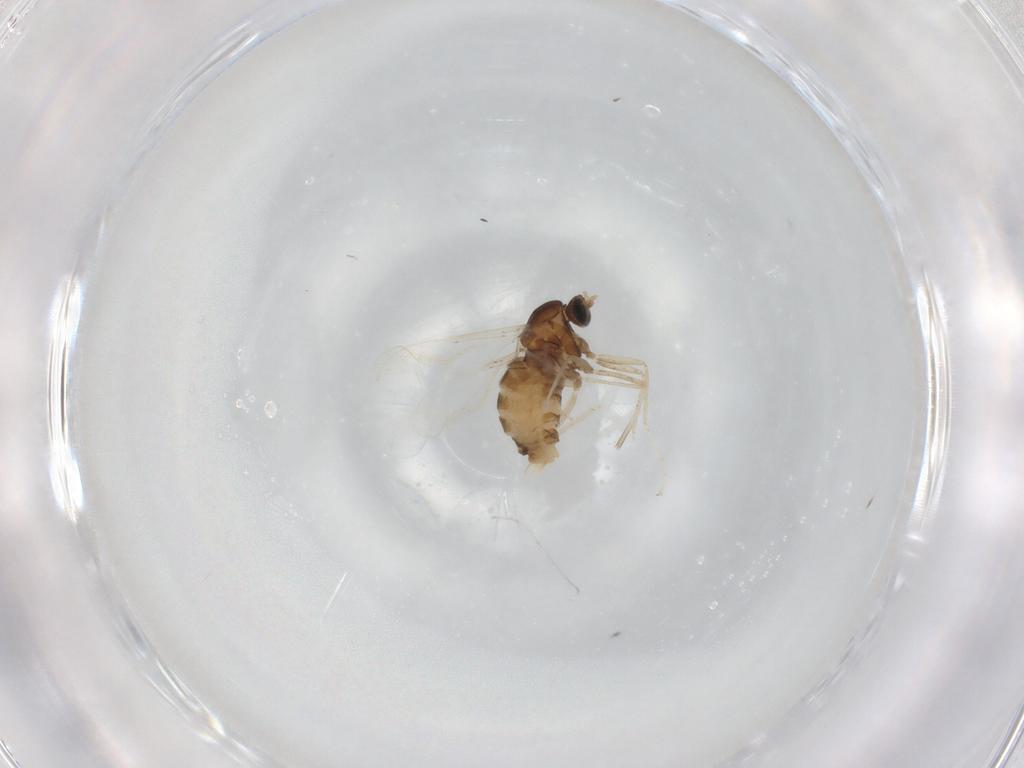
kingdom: Animalia
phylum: Arthropoda
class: Insecta
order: Diptera
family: Cecidomyiidae
